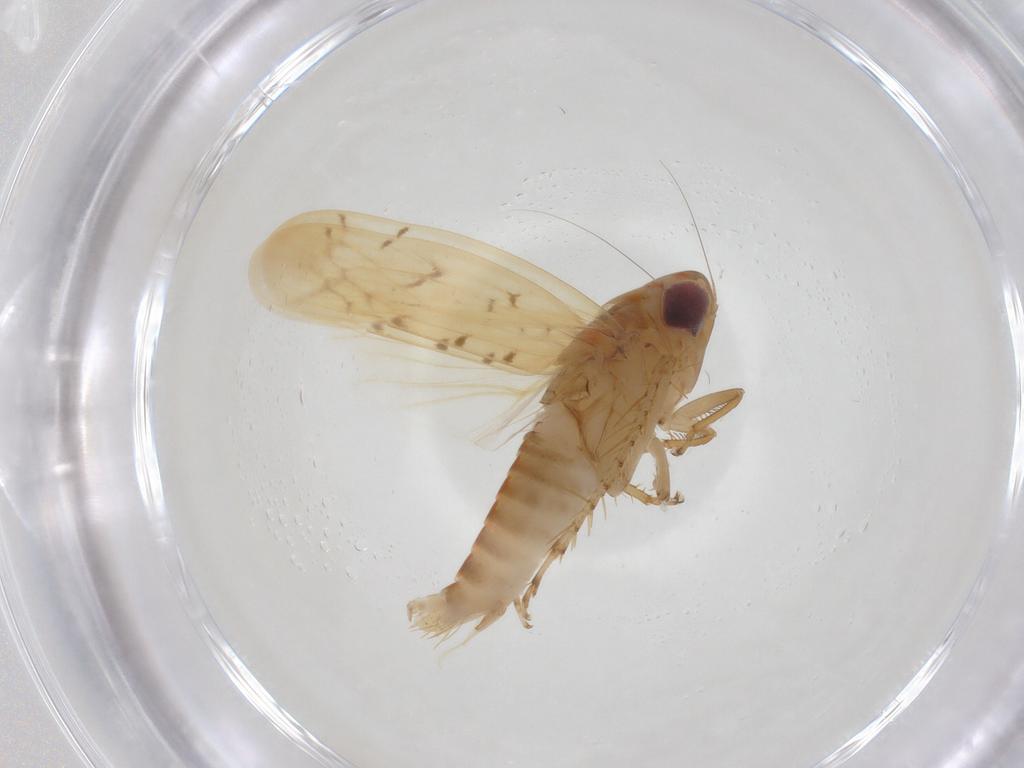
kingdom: Animalia
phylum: Arthropoda
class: Insecta
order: Hemiptera
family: Cicadellidae
